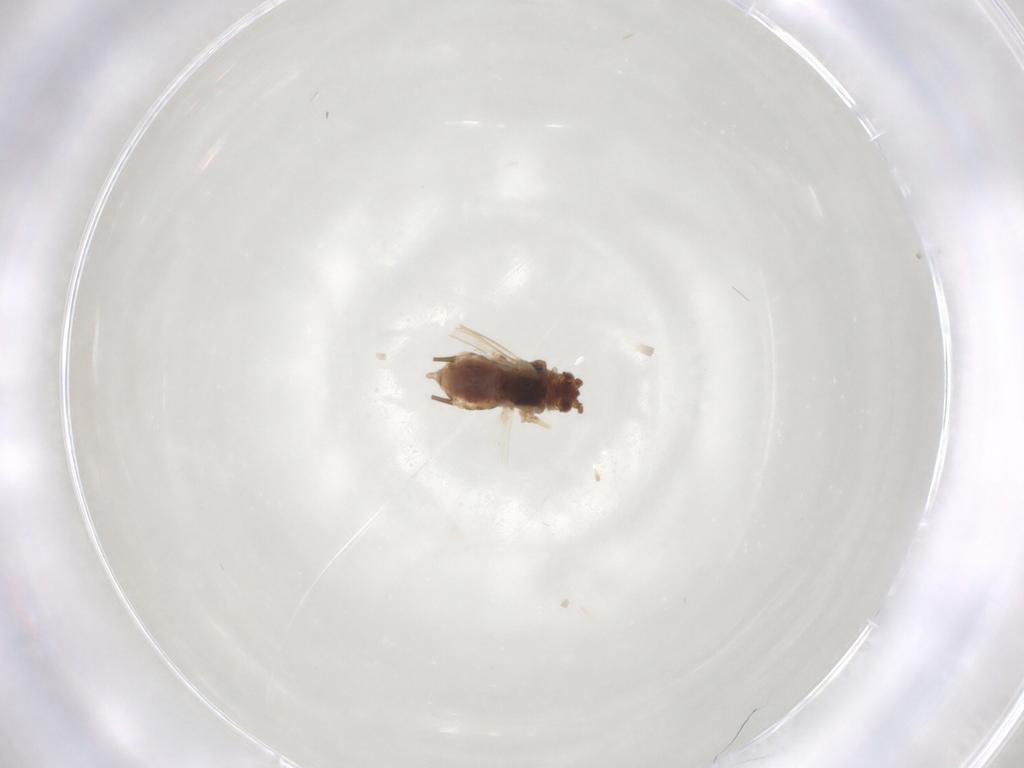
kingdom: Animalia
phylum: Arthropoda
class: Insecta
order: Hemiptera
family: Aphididae
